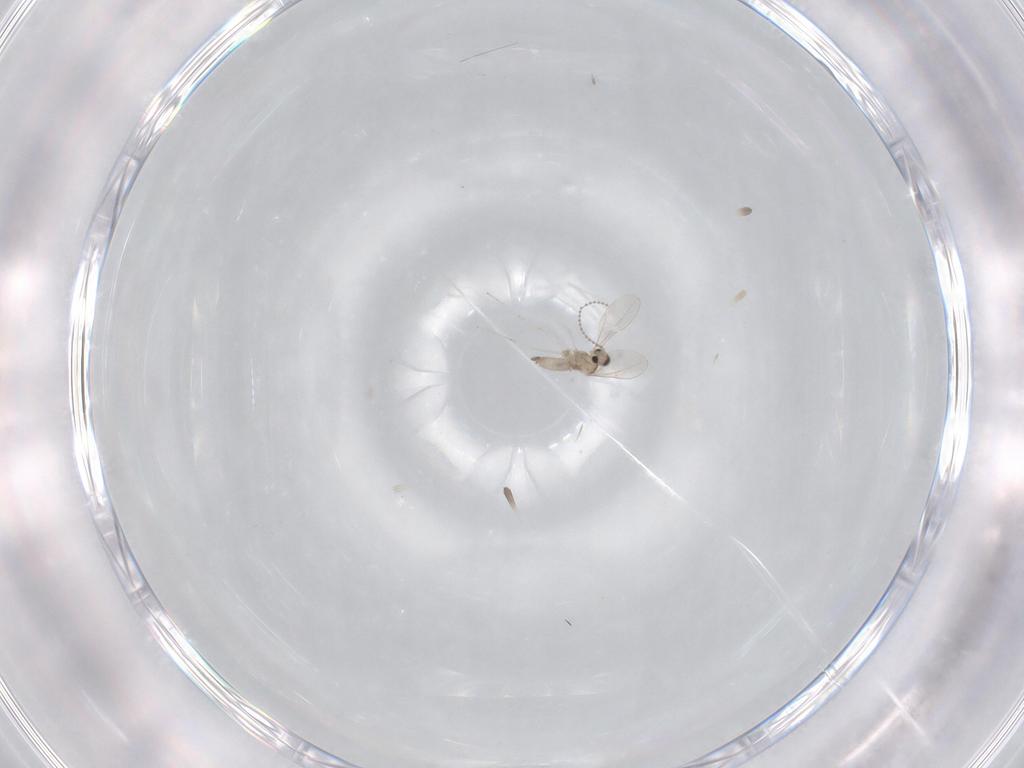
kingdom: Animalia
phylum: Arthropoda
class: Insecta
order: Diptera
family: Cecidomyiidae
